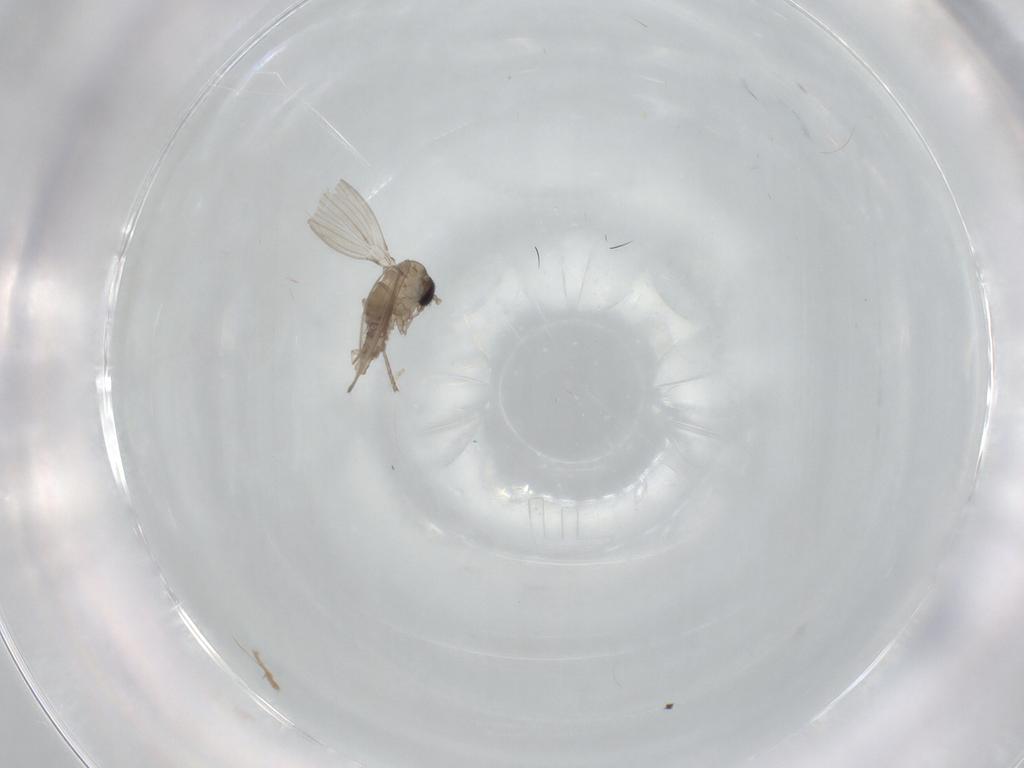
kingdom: Animalia
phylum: Arthropoda
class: Insecta
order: Diptera
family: Psychodidae
